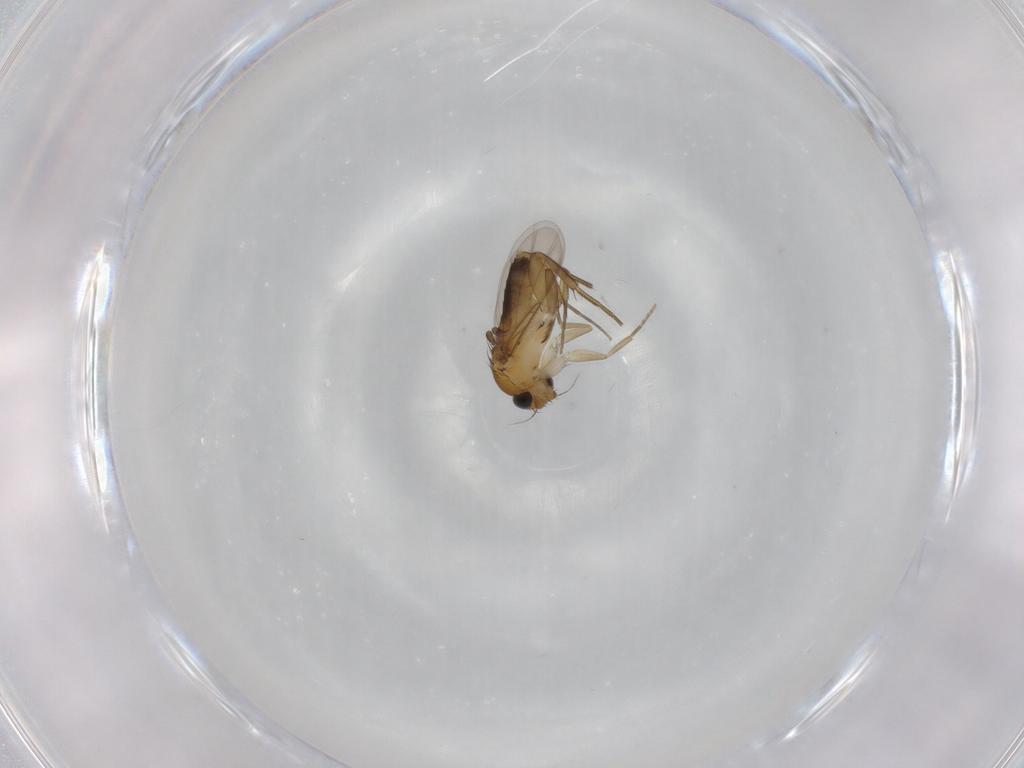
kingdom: Animalia
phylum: Arthropoda
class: Insecta
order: Diptera
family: Phoridae
